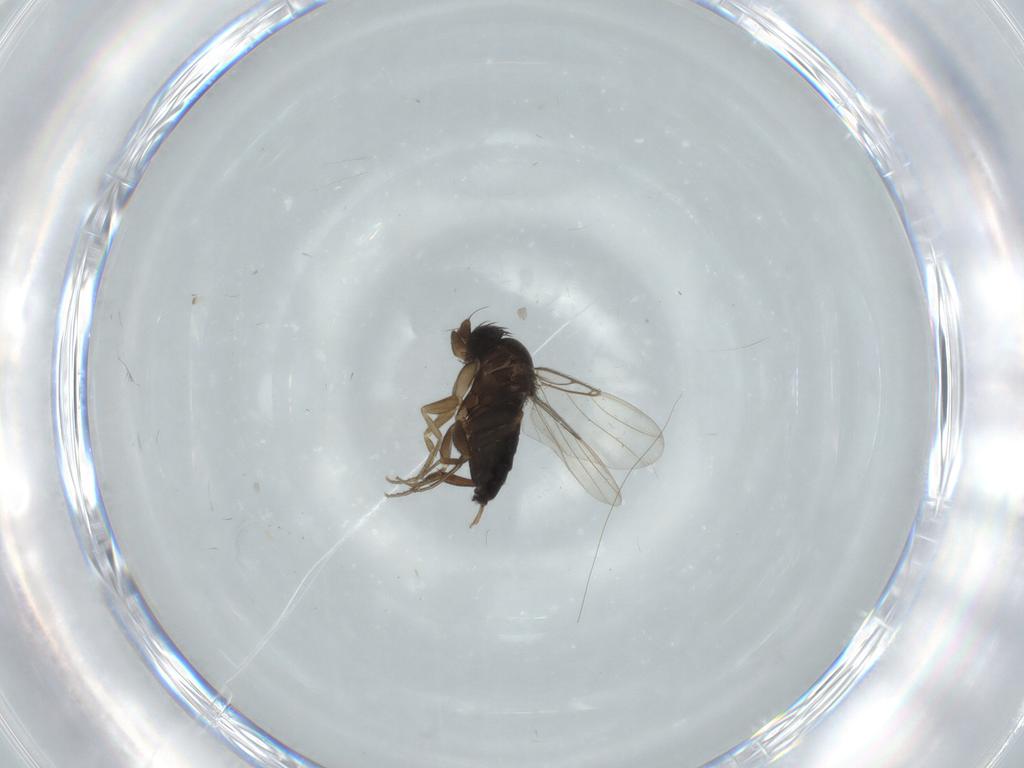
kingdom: Animalia
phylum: Arthropoda
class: Insecta
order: Diptera
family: Phoridae
